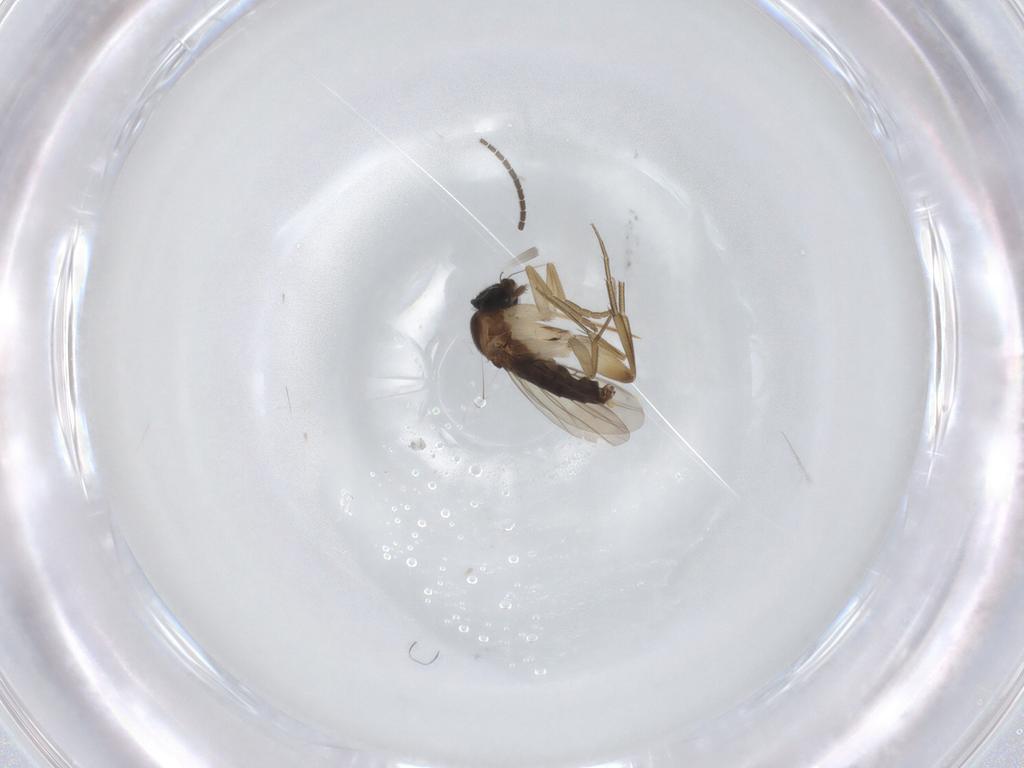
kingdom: Animalia
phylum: Arthropoda
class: Insecta
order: Diptera
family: Phoridae
